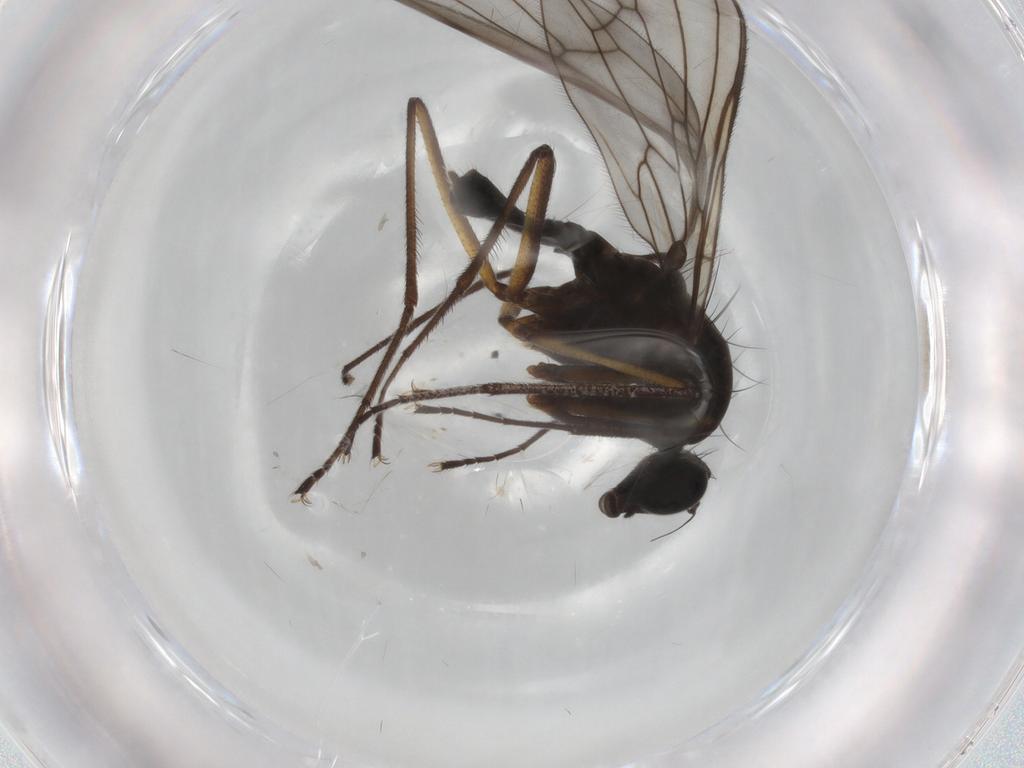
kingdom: Animalia
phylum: Arthropoda
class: Insecta
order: Diptera
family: Empididae
